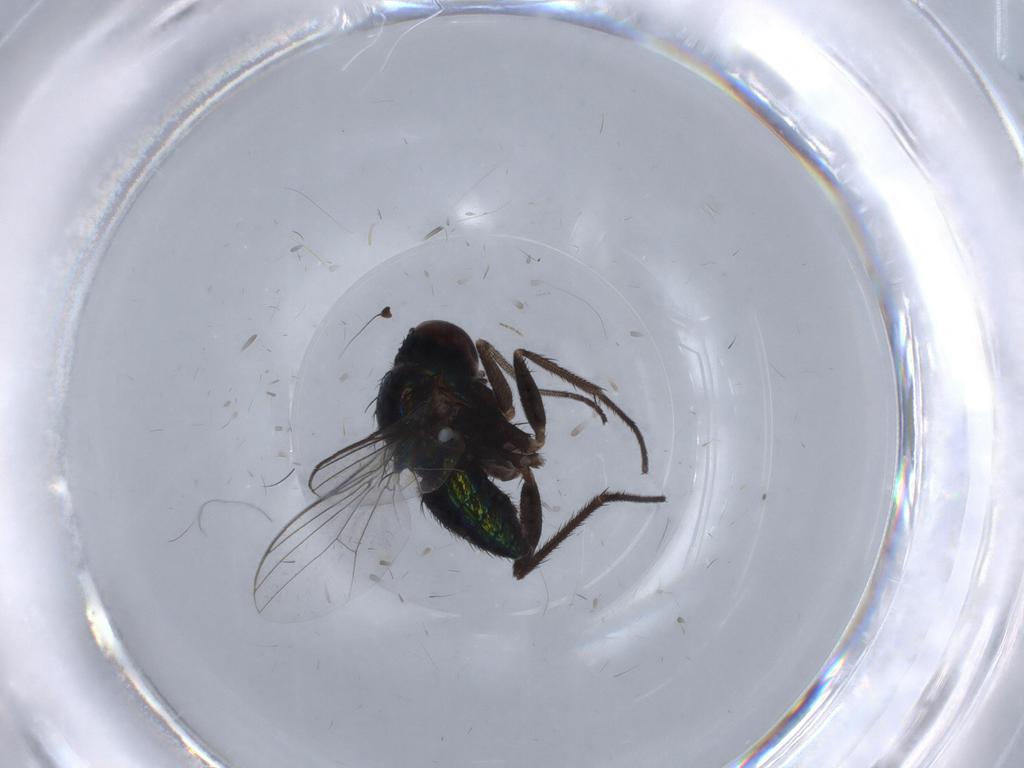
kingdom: Animalia
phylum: Arthropoda
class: Insecta
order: Diptera
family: Dolichopodidae
